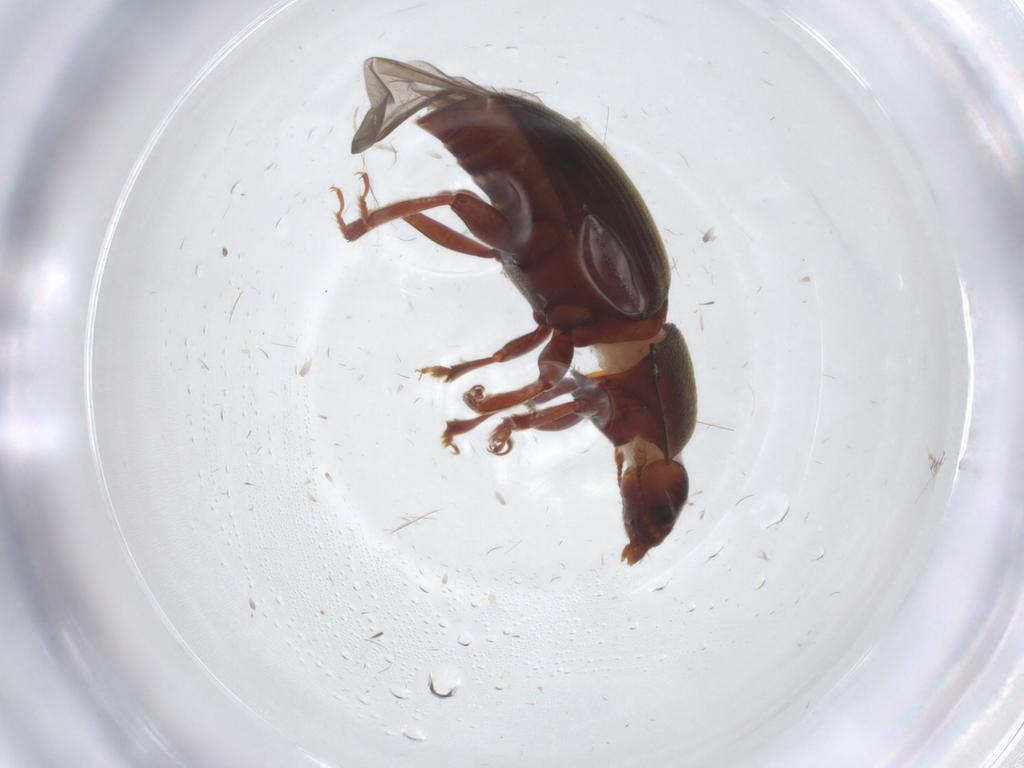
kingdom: Animalia
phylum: Arthropoda
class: Insecta
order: Coleoptera
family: Nitidulidae
